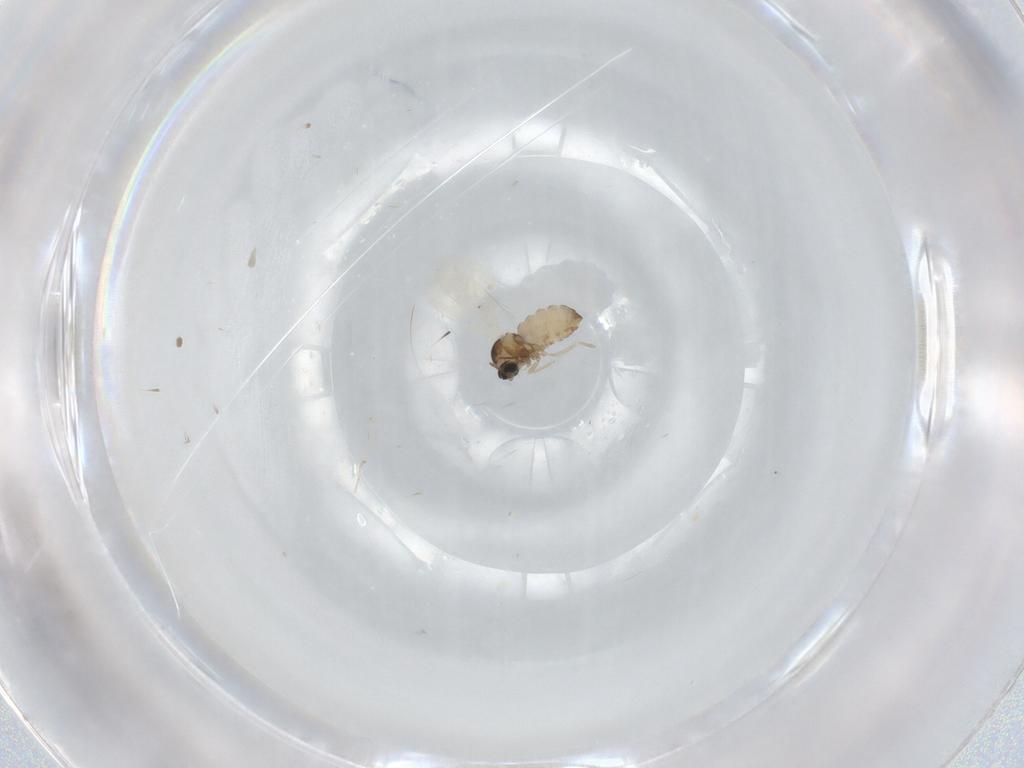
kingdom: Animalia
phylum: Arthropoda
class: Insecta
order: Diptera
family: Cecidomyiidae
